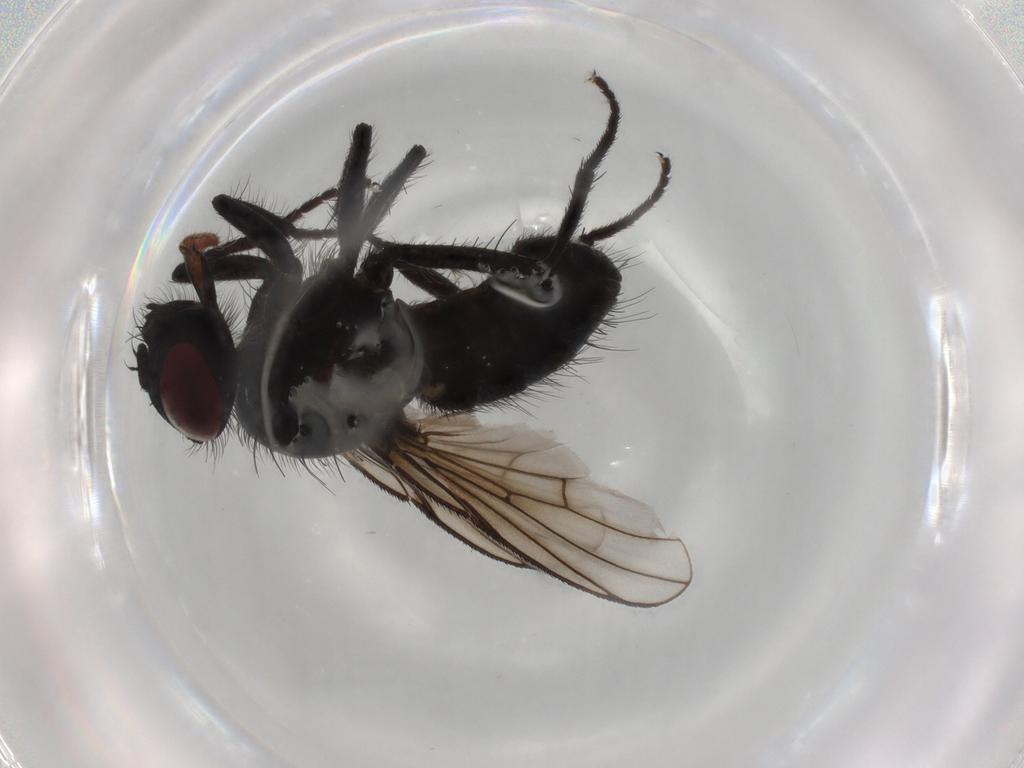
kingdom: Animalia
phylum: Arthropoda
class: Insecta
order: Diptera
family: Muscidae
